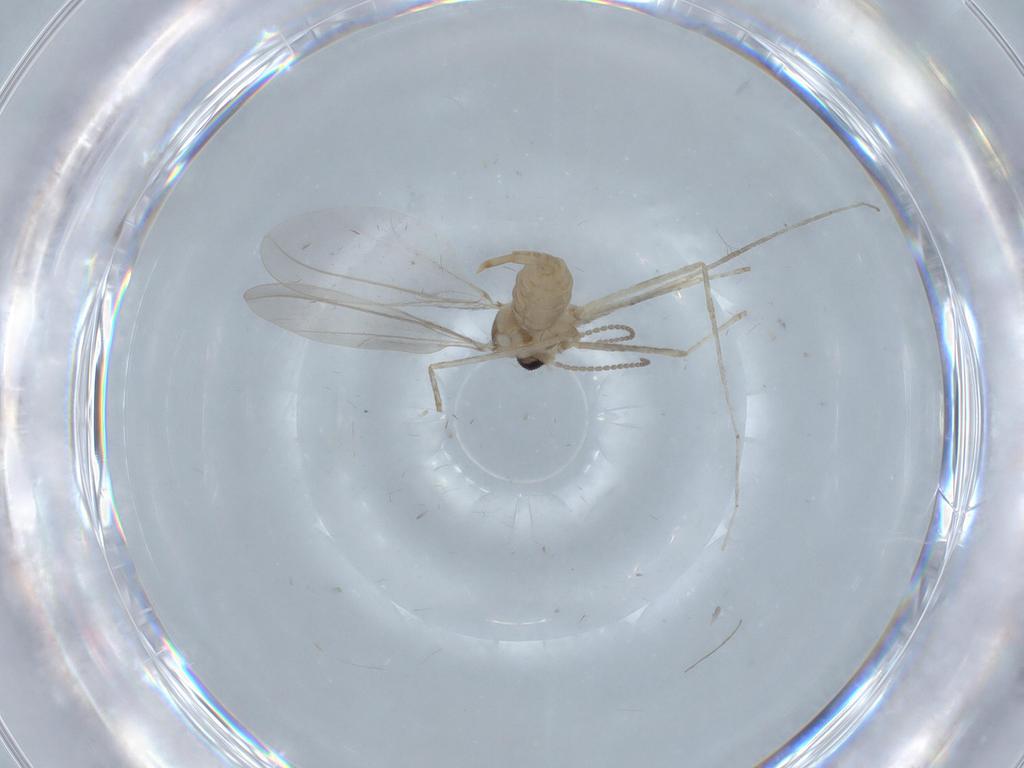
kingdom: Animalia
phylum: Arthropoda
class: Insecta
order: Diptera
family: Cecidomyiidae
